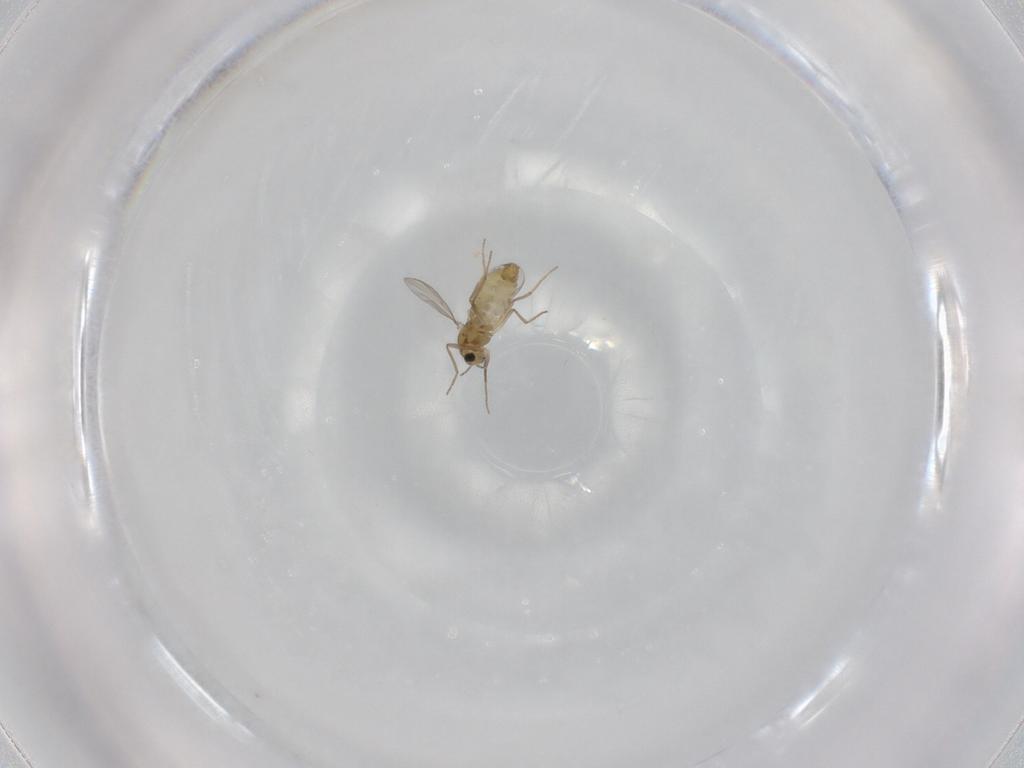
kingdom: Animalia
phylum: Arthropoda
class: Insecta
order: Diptera
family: Chironomidae
